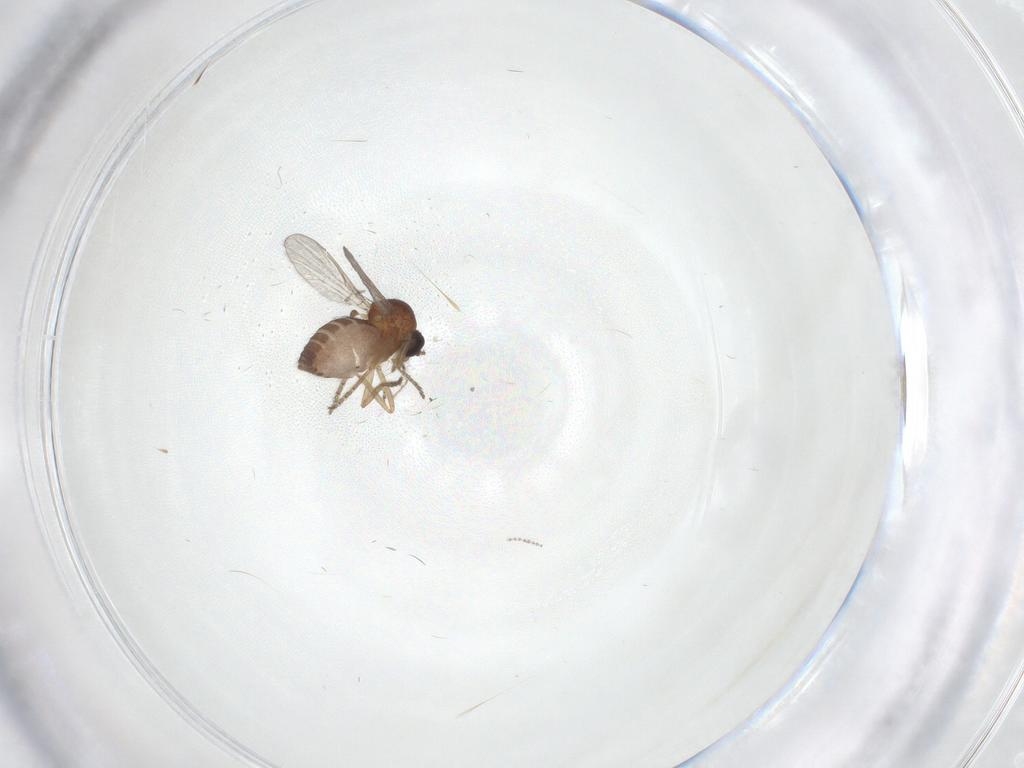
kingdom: Animalia
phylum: Arthropoda
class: Insecta
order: Diptera
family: Ceratopogonidae
